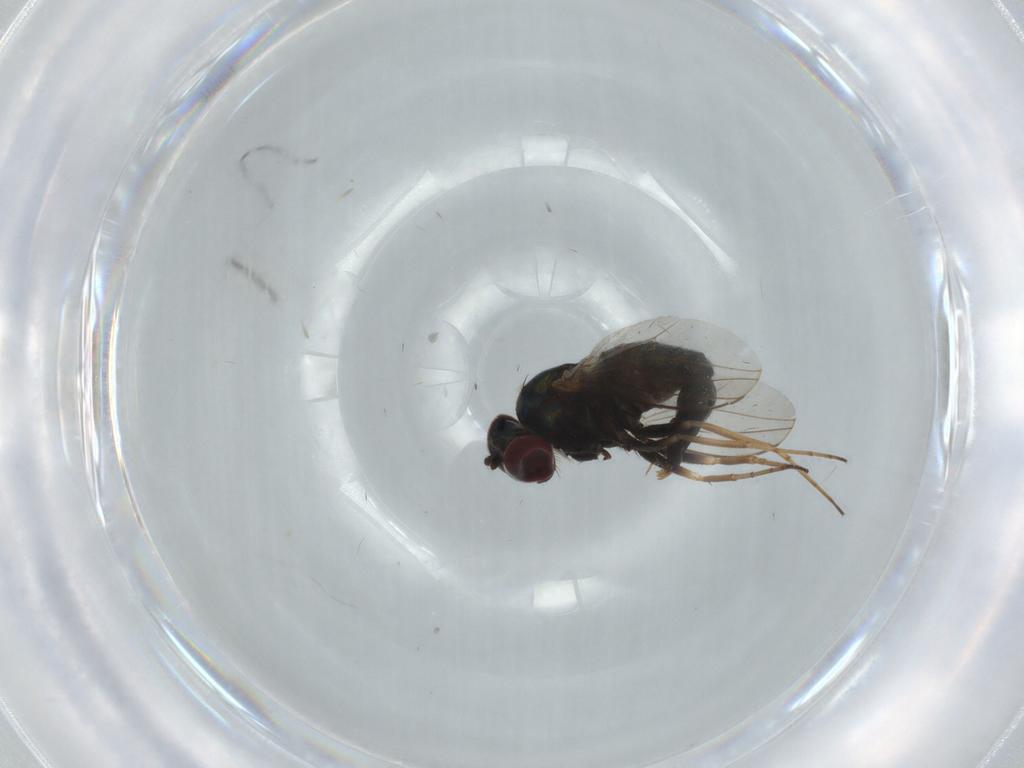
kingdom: Animalia
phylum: Arthropoda
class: Insecta
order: Diptera
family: Dolichopodidae
